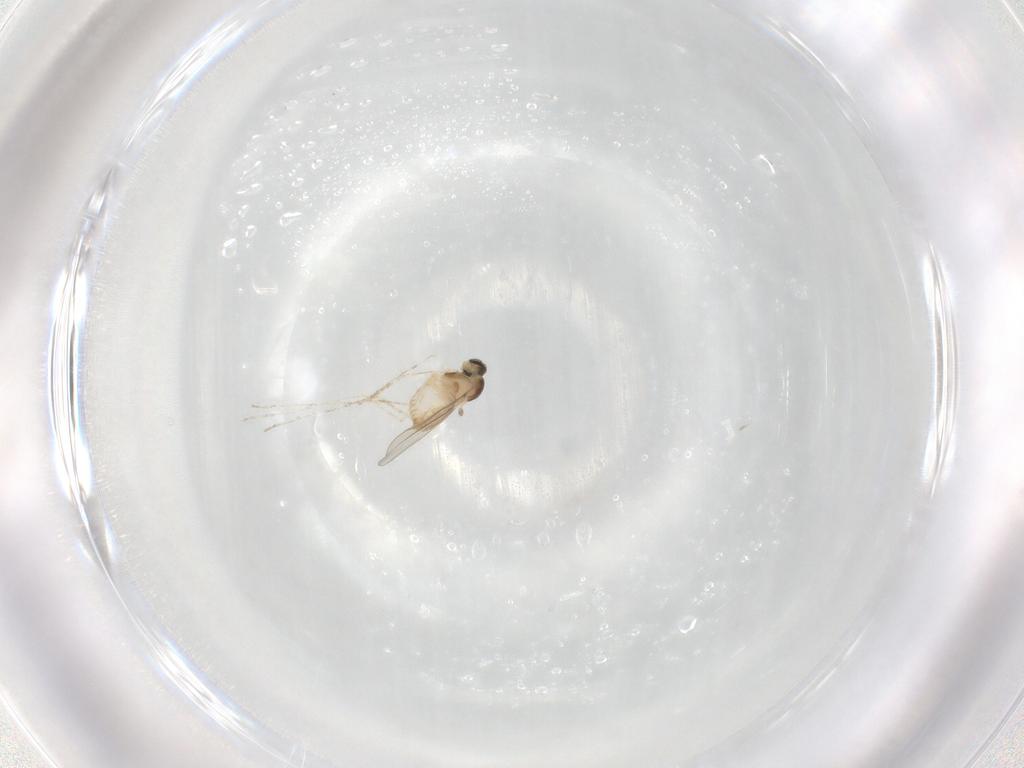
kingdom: Animalia
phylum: Arthropoda
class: Insecta
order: Diptera
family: Cecidomyiidae
